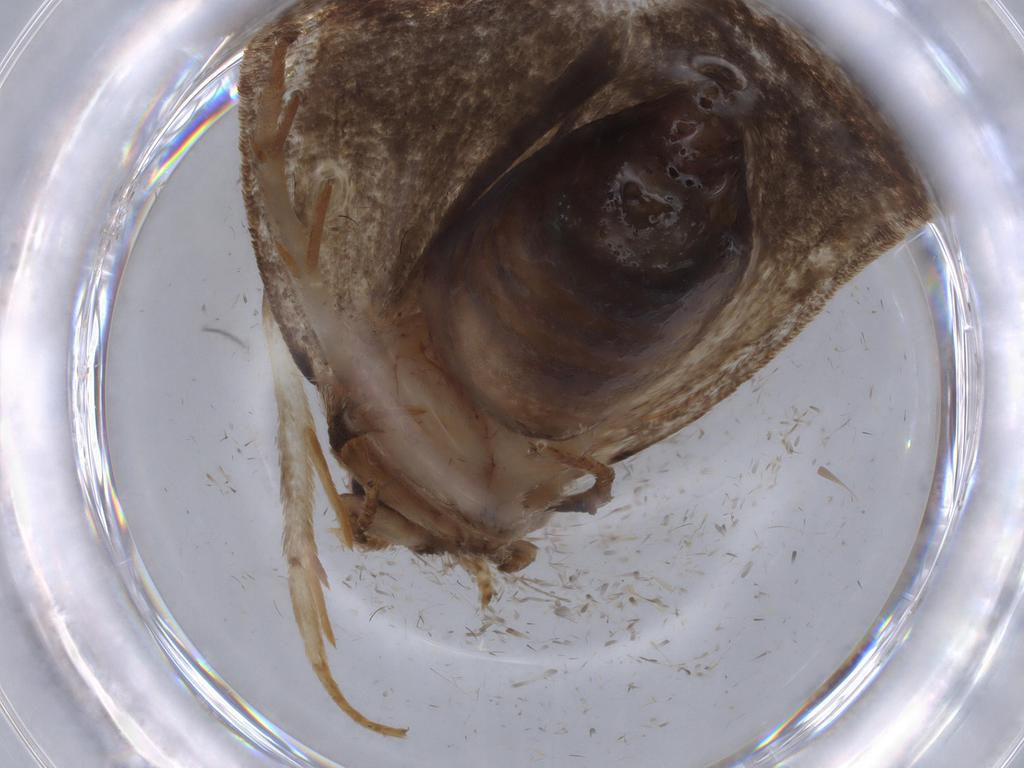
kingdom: Animalia
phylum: Arthropoda
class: Insecta
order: Lepidoptera
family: Tineidae
